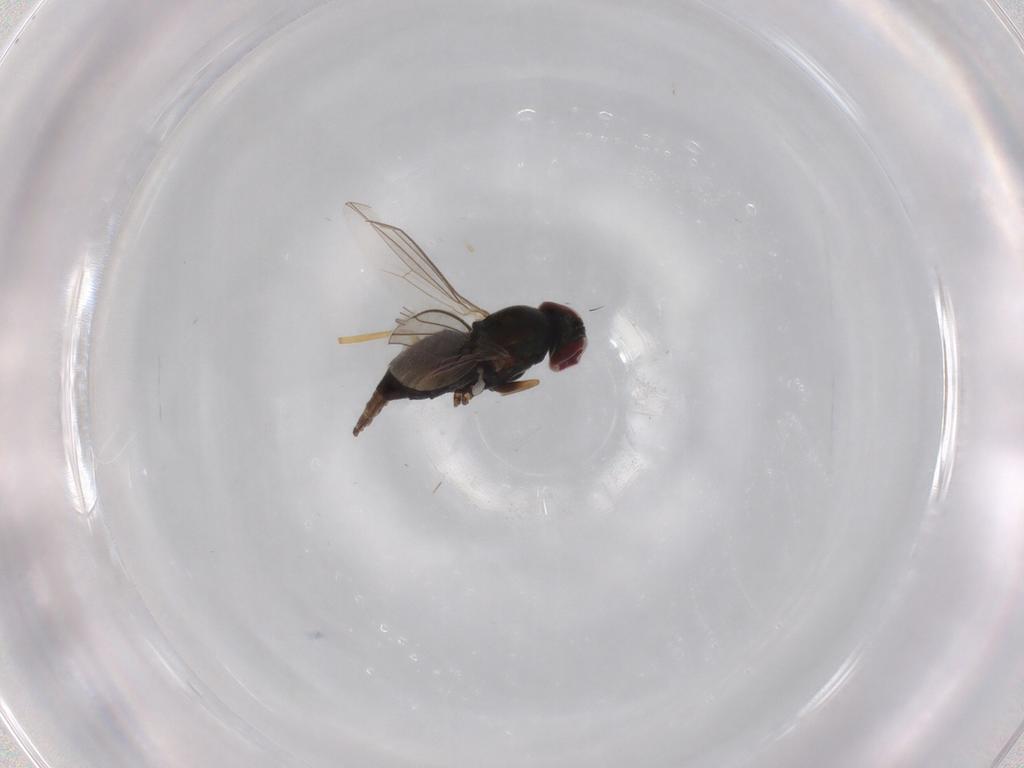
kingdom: Animalia
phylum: Arthropoda
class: Insecta
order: Diptera
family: Dolichopodidae
